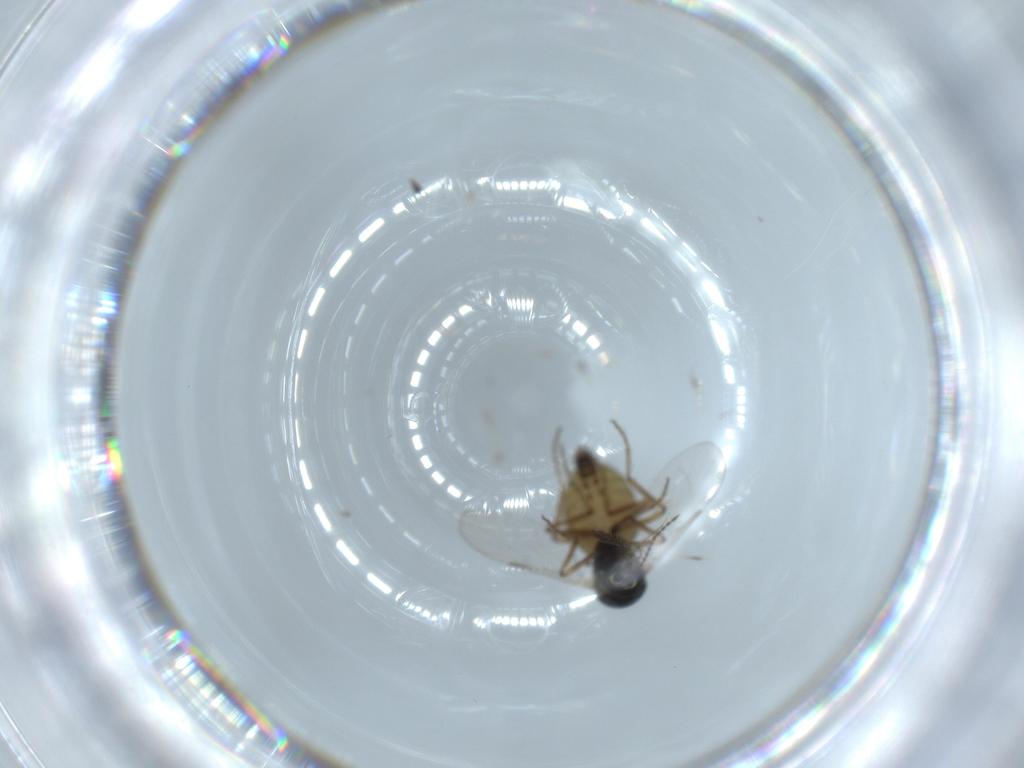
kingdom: Animalia
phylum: Arthropoda
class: Insecta
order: Diptera
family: Ceratopogonidae
